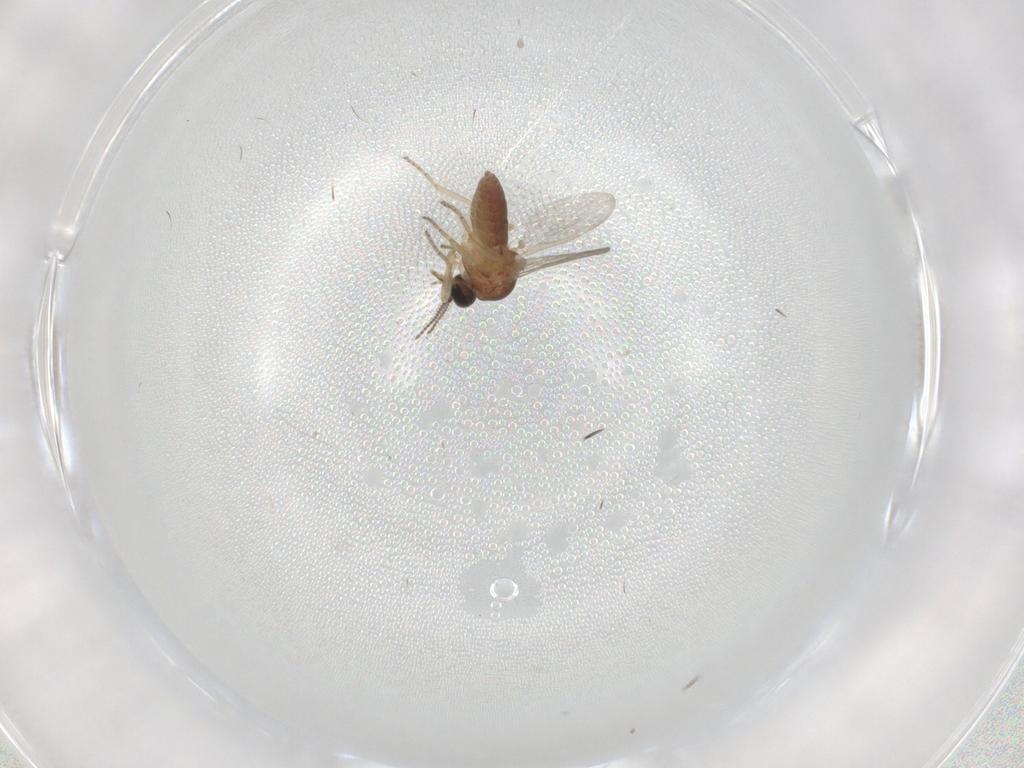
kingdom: Animalia
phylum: Arthropoda
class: Insecta
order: Diptera
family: Ceratopogonidae
